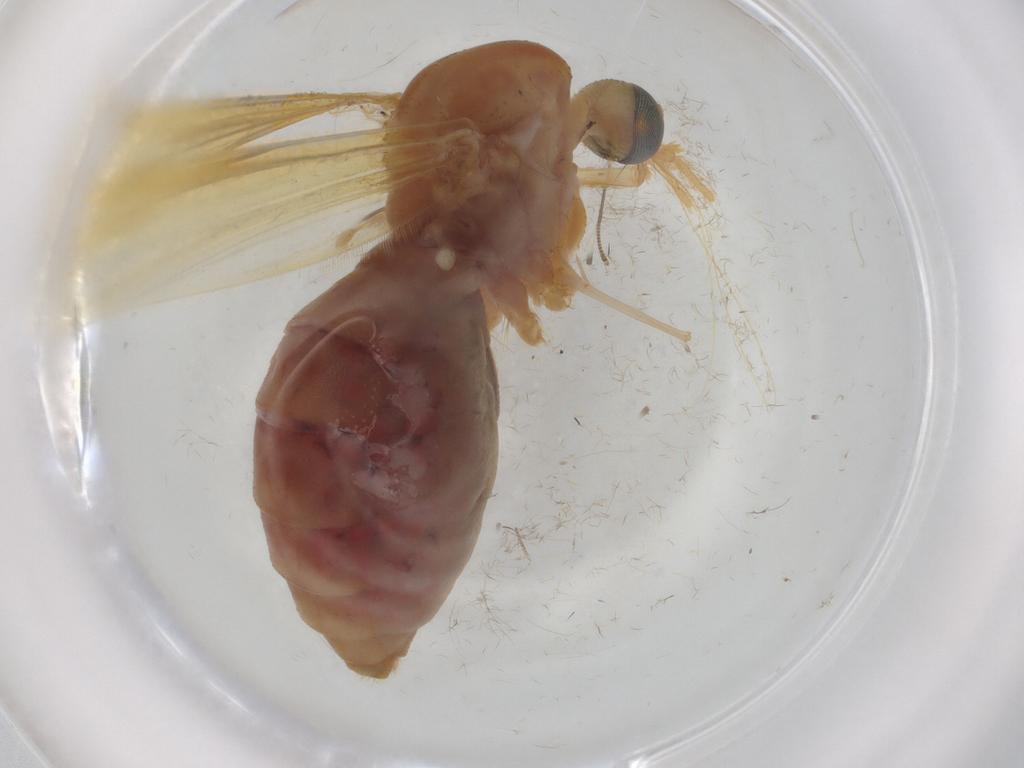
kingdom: Animalia
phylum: Arthropoda
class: Insecta
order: Diptera
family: Culicidae
